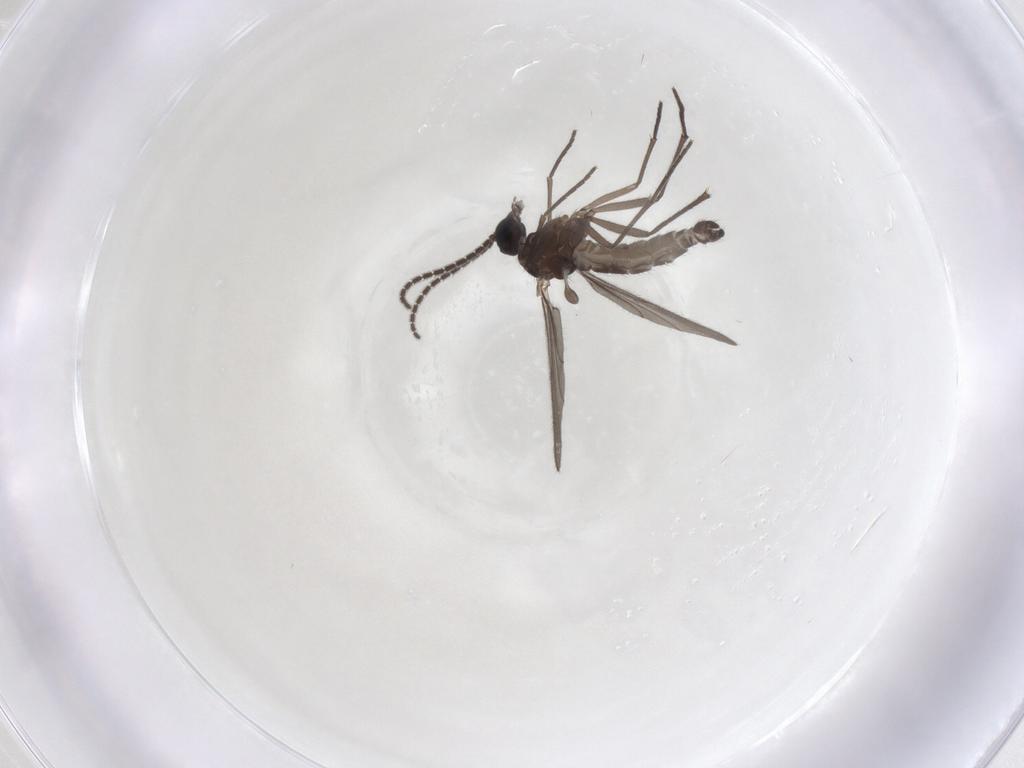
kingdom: Animalia
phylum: Arthropoda
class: Insecta
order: Diptera
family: Sciaridae
